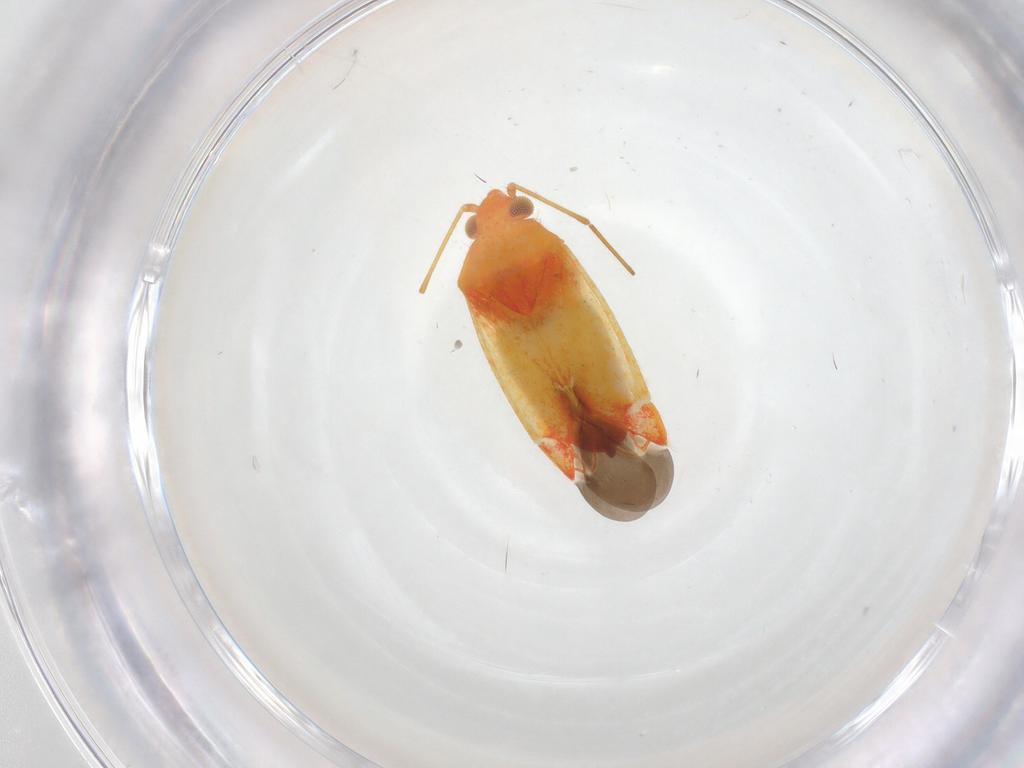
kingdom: Animalia
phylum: Arthropoda
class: Insecta
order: Hemiptera
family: Miridae
